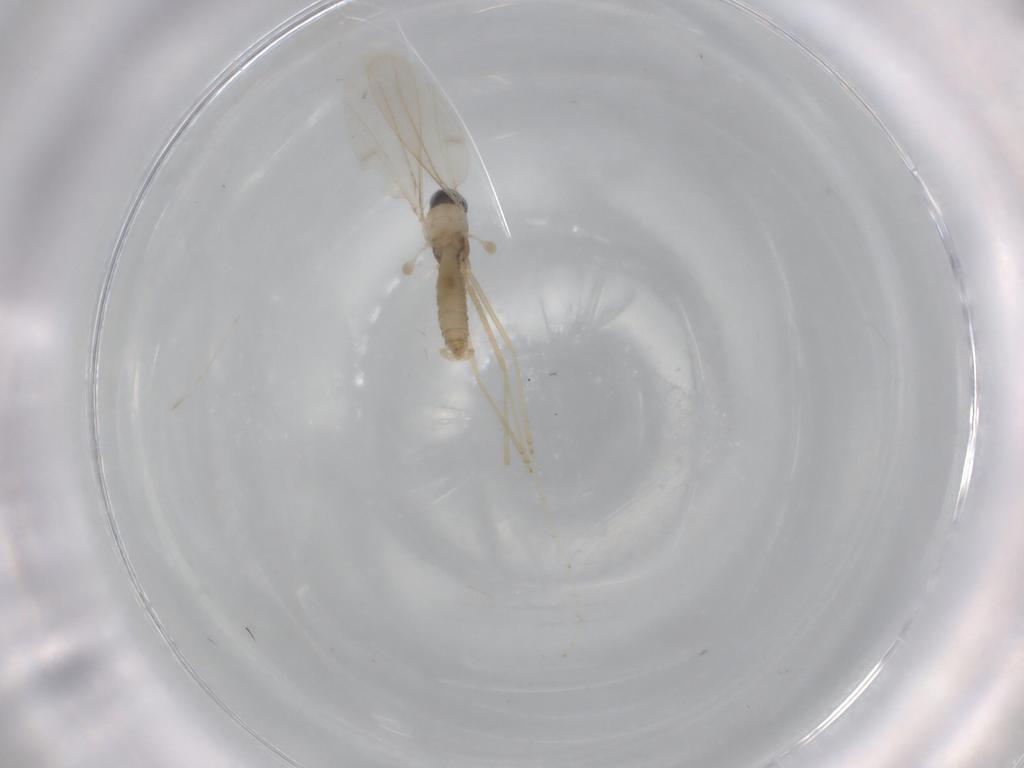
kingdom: Animalia
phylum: Arthropoda
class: Insecta
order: Diptera
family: Cecidomyiidae
